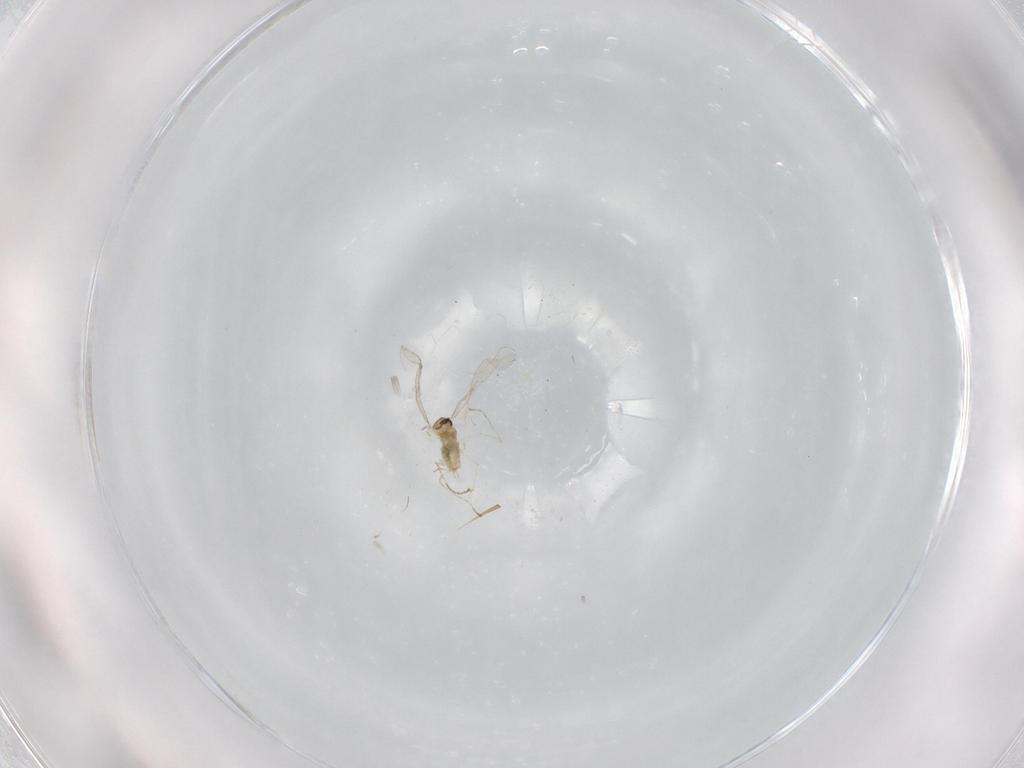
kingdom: Animalia
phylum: Arthropoda
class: Insecta
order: Diptera
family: Cecidomyiidae
